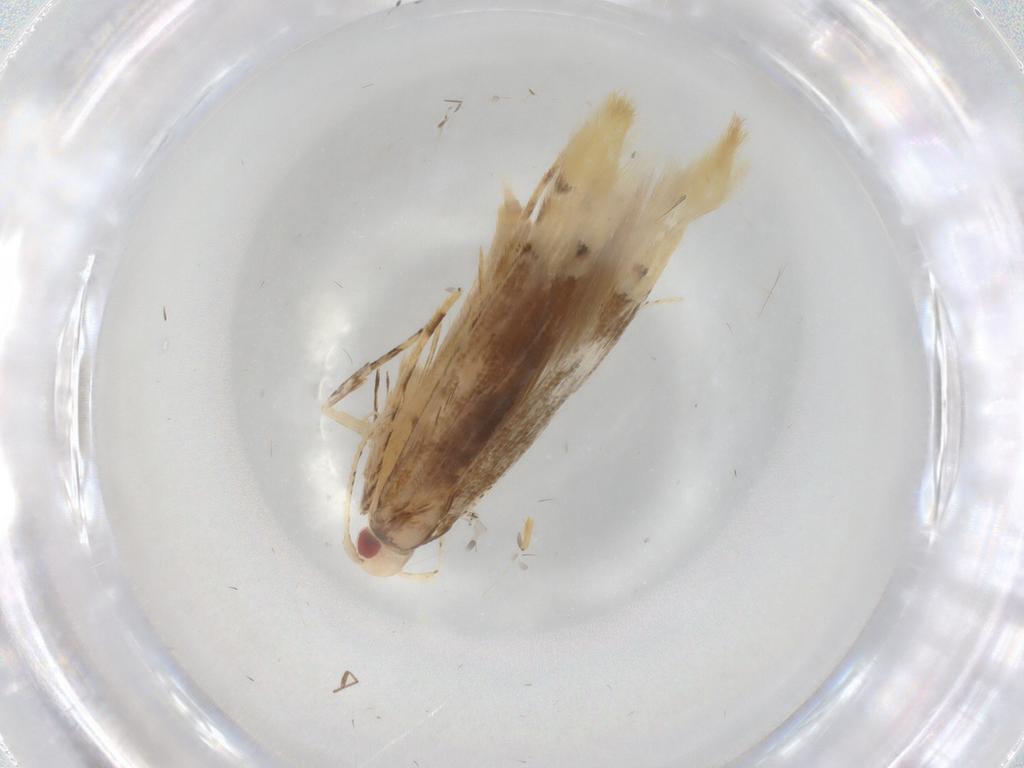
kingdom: Animalia
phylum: Arthropoda
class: Insecta
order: Lepidoptera
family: Cosmopterigidae
